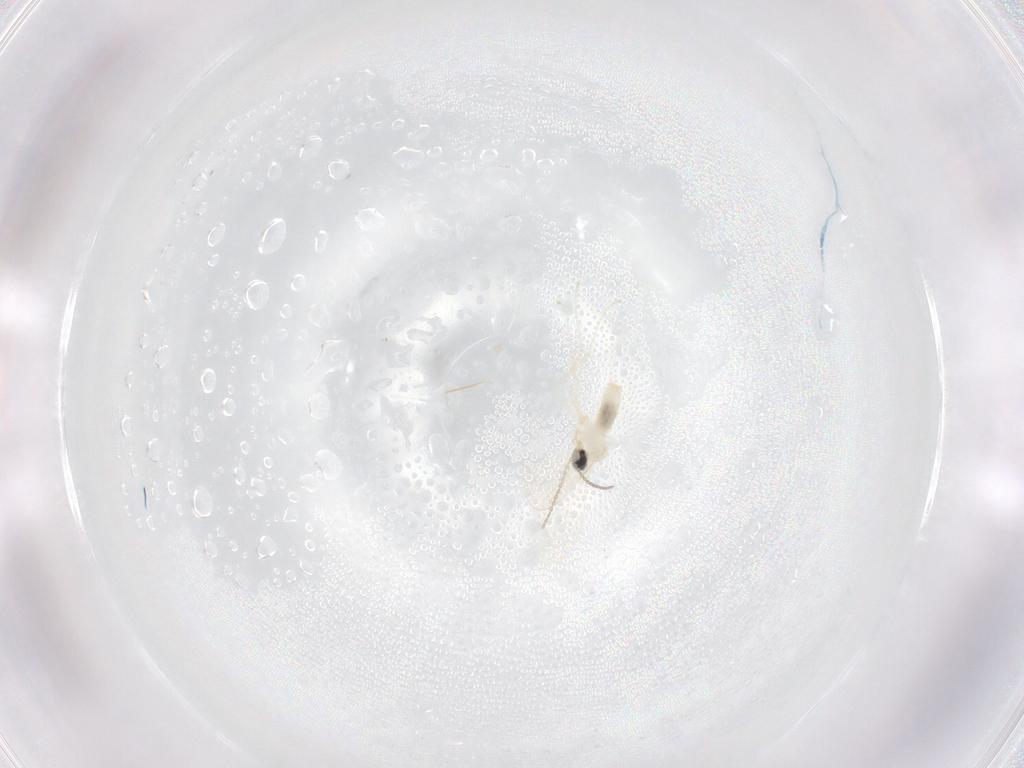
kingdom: Animalia
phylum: Arthropoda
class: Insecta
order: Diptera
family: Cecidomyiidae
